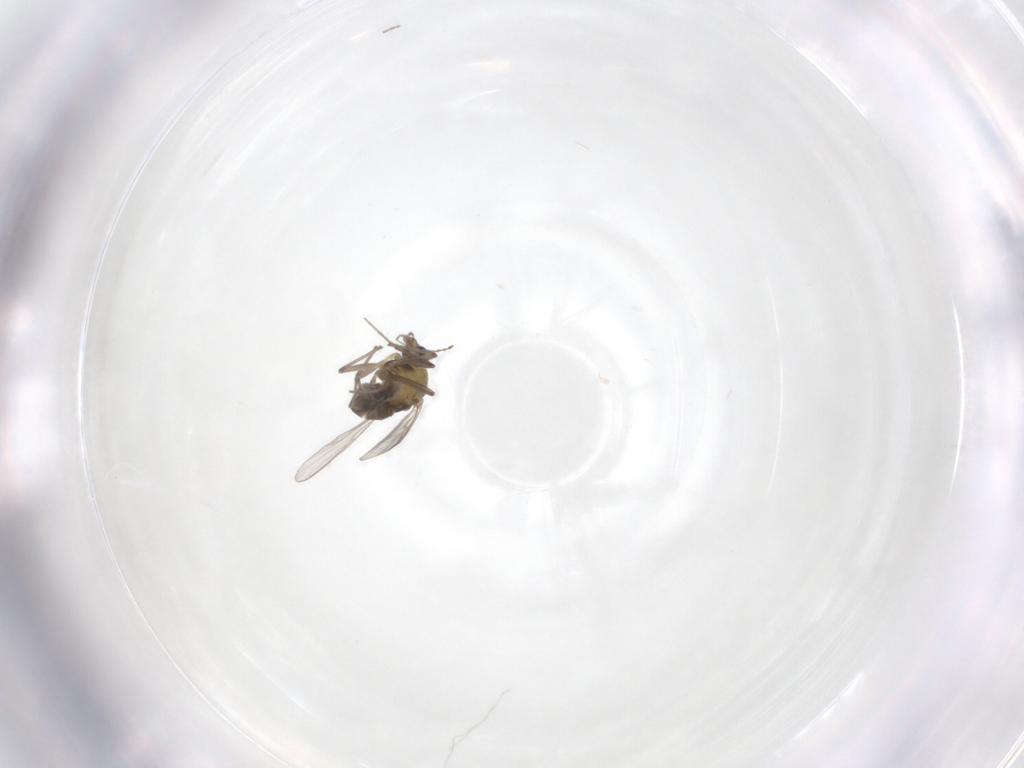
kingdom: Animalia
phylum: Arthropoda
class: Insecta
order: Diptera
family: Chironomidae
